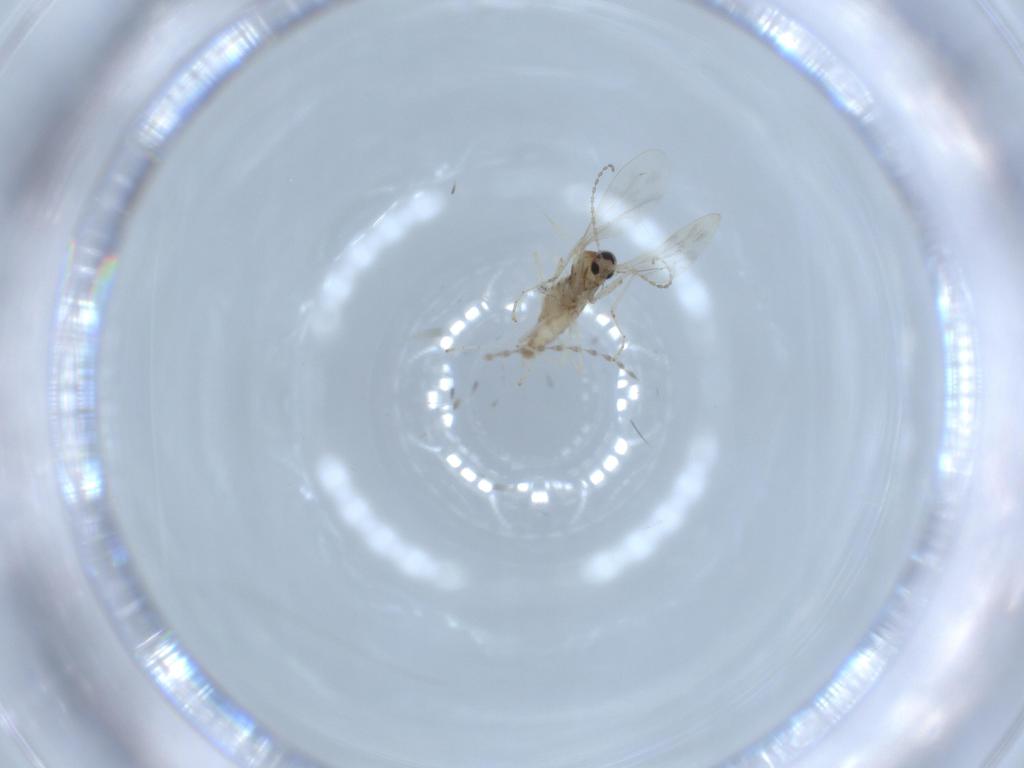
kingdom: Animalia
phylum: Arthropoda
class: Insecta
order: Diptera
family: Cecidomyiidae
